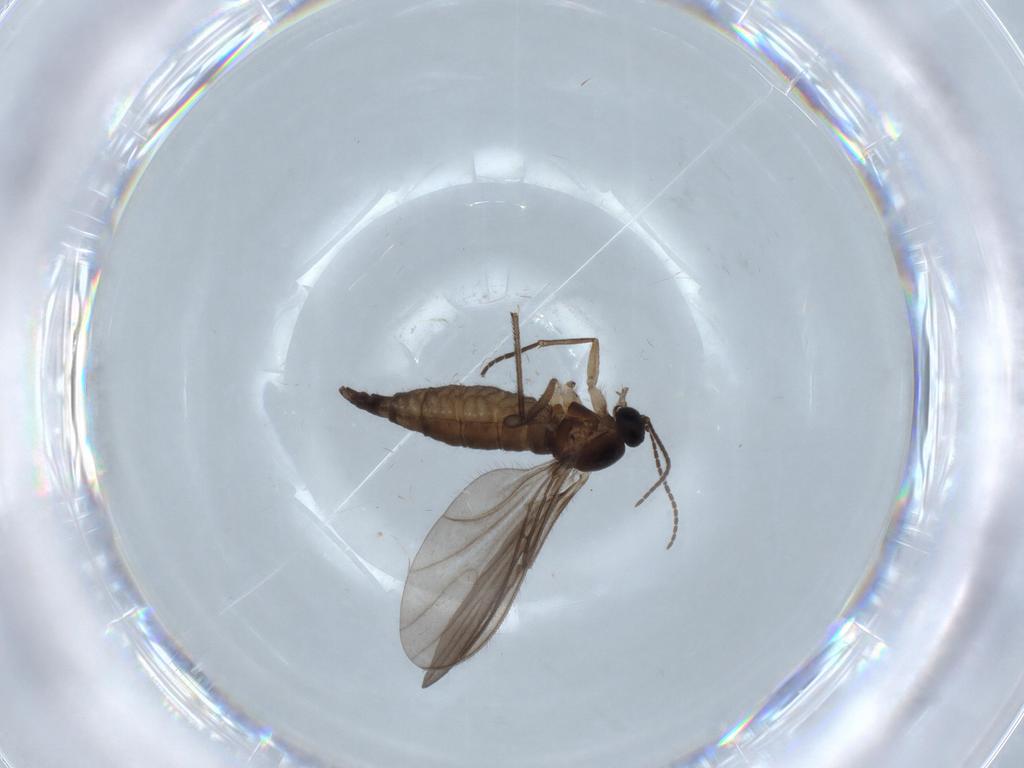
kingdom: Animalia
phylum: Arthropoda
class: Insecta
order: Diptera
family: Sciaridae
